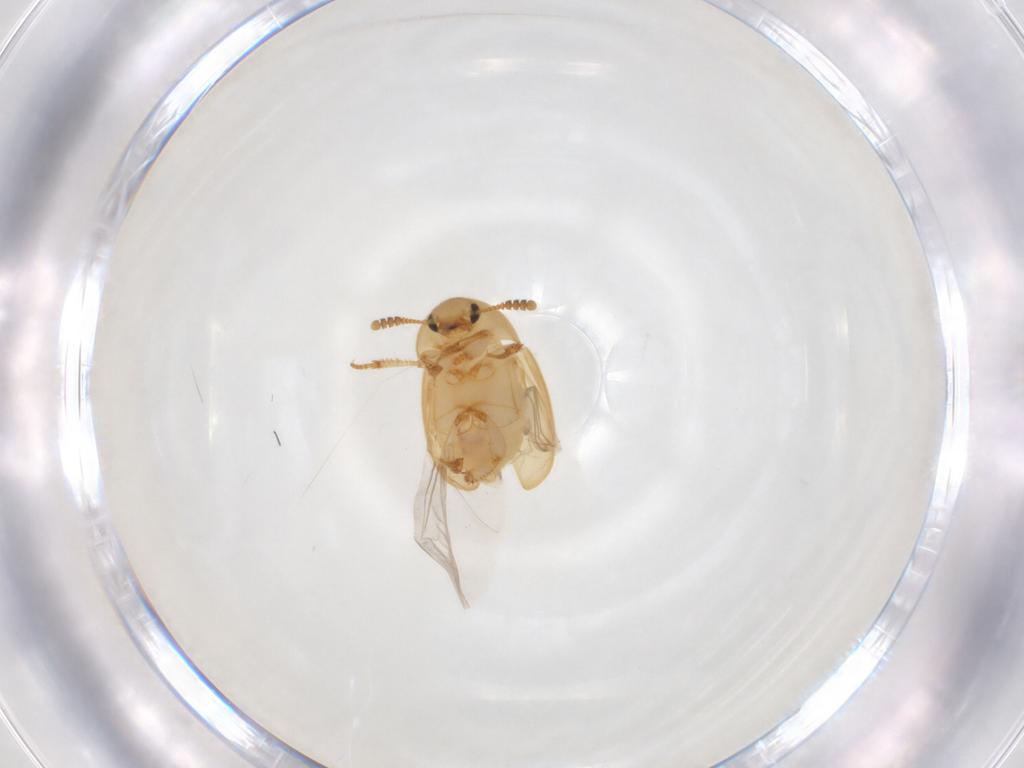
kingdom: Animalia
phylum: Arthropoda
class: Insecta
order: Coleoptera
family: Leiodidae
